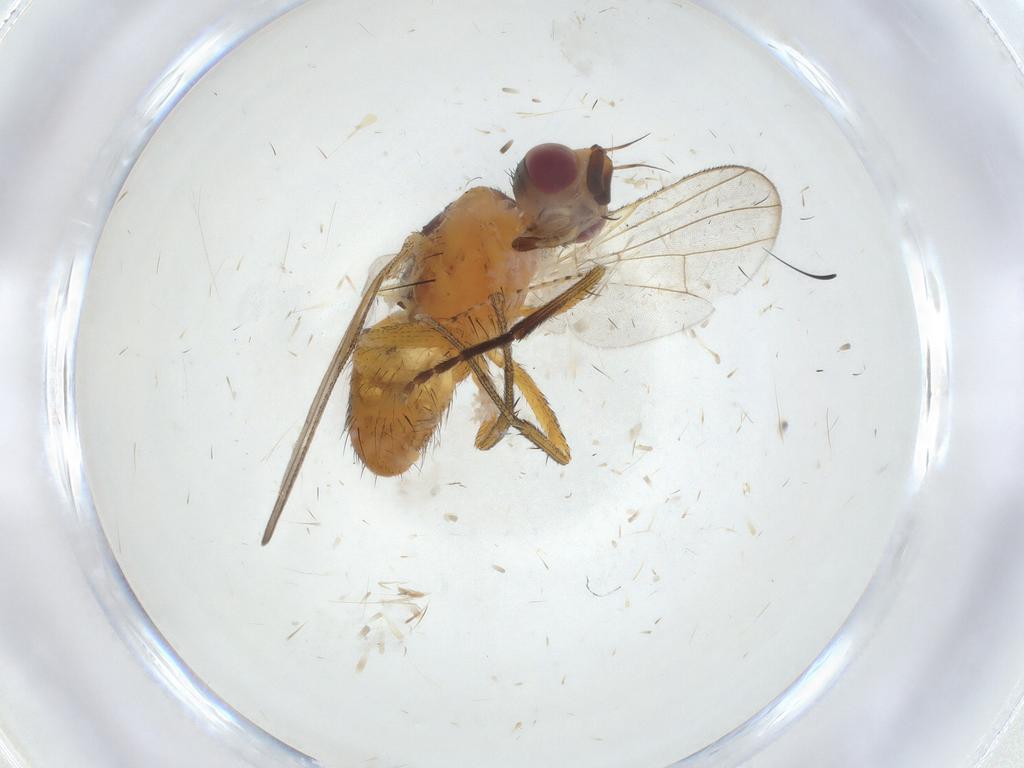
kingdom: Animalia
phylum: Arthropoda
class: Insecta
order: Diptera
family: Muscidae
